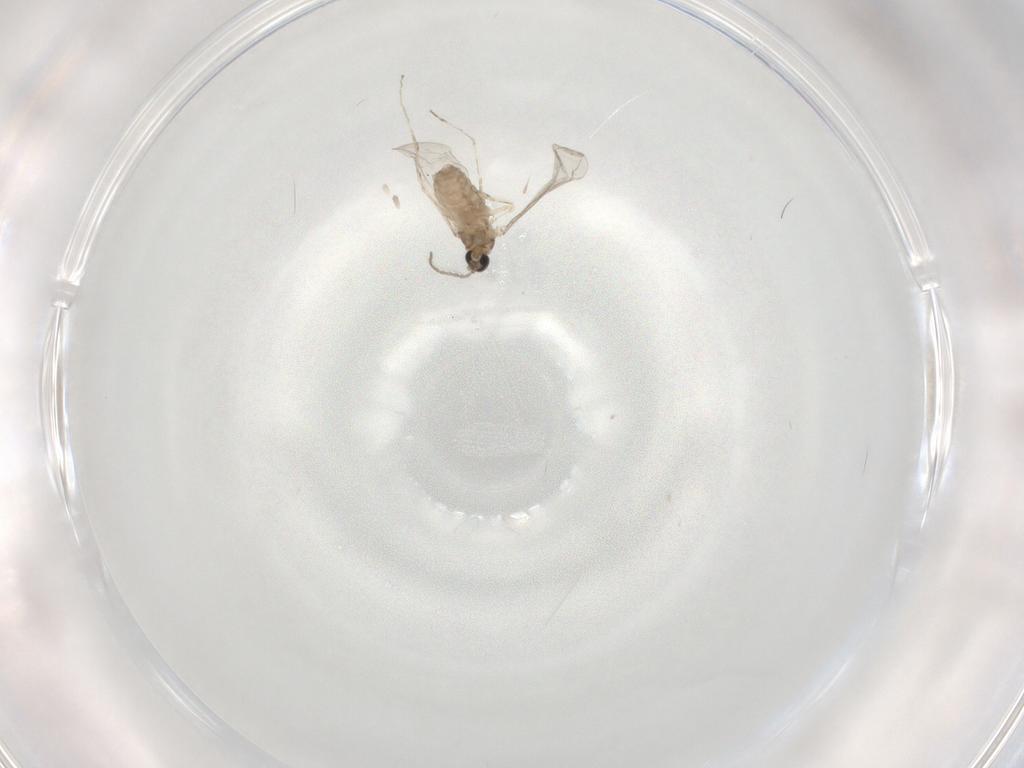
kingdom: Animalia
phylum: Arthropoda
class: Insecta
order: Diptera
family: Cecidomyiidae
